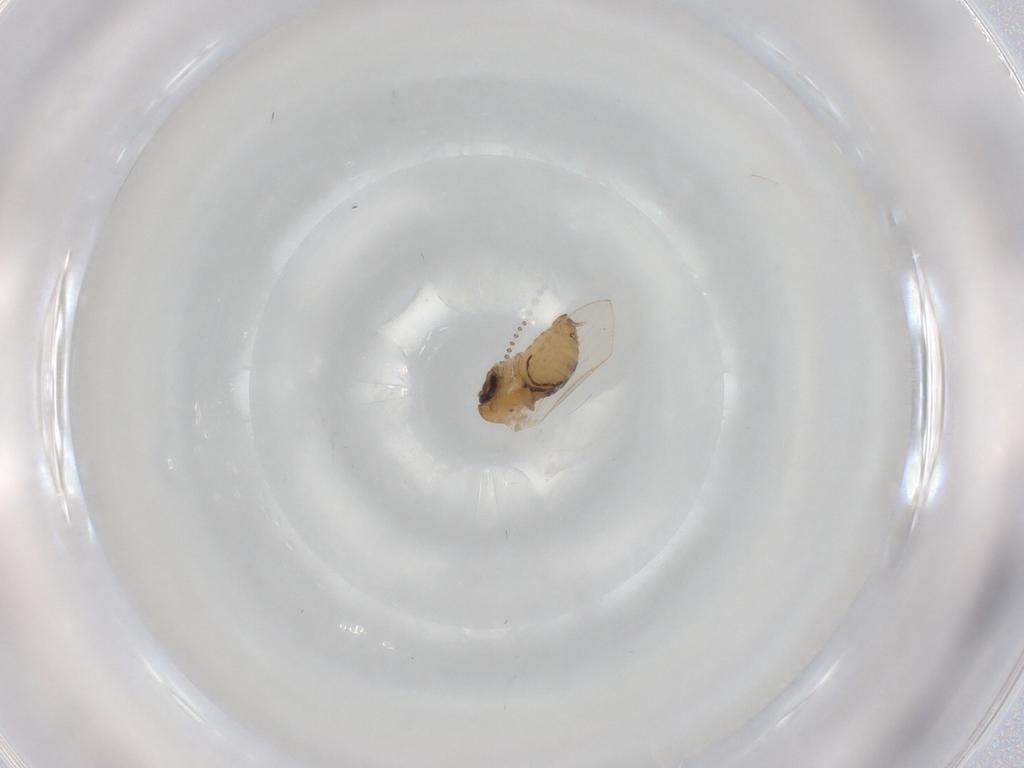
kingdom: Animalia
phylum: Arthropoda
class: Insecta
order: Diptera
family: Psychodidae
